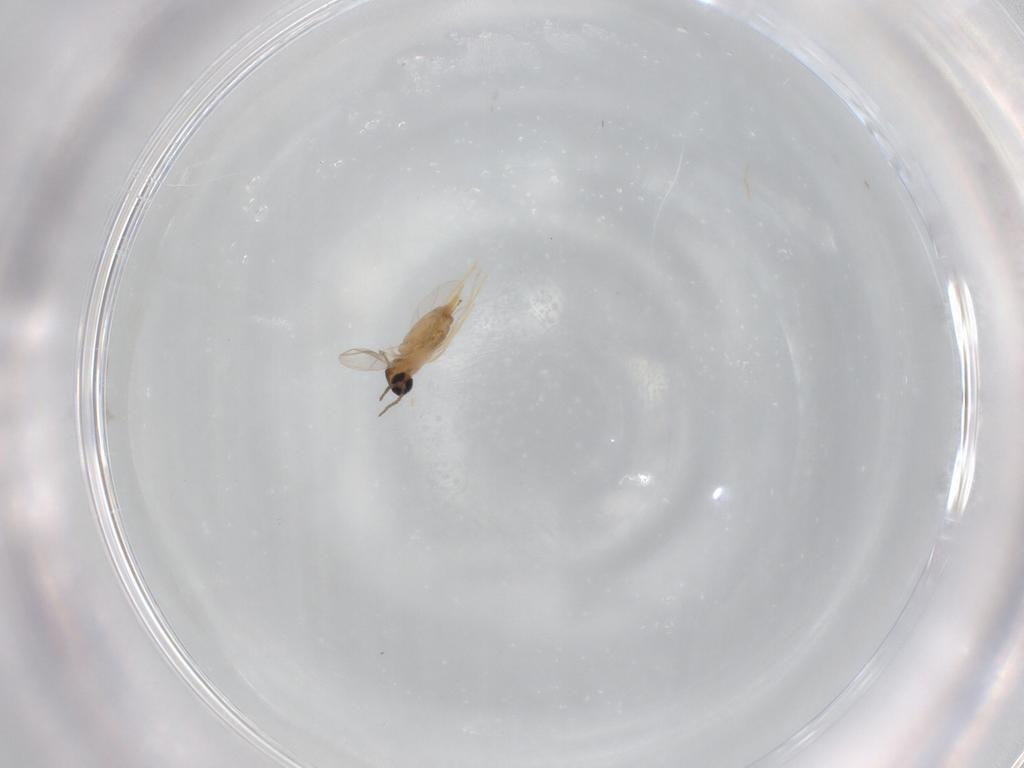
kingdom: Animalia
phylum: Arthropoda
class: Insecta
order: Diptera
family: Cecidomyiidae
